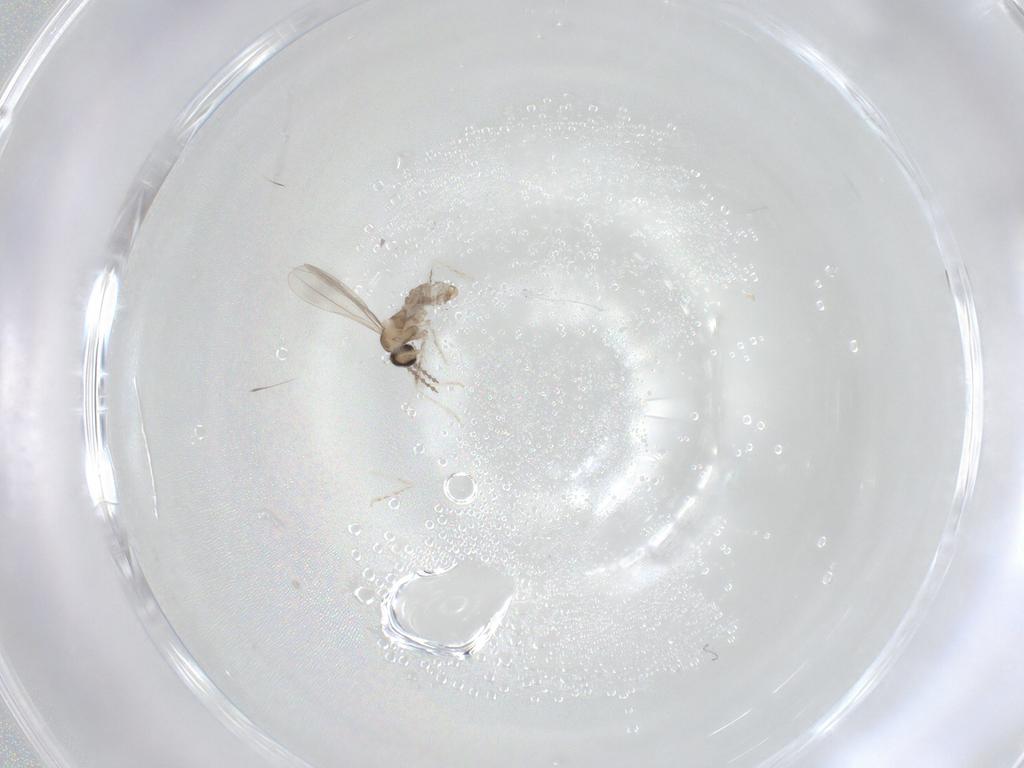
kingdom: Animalia
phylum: Arthropoda
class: Insecta
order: Diptera
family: Cecidomyiidae
